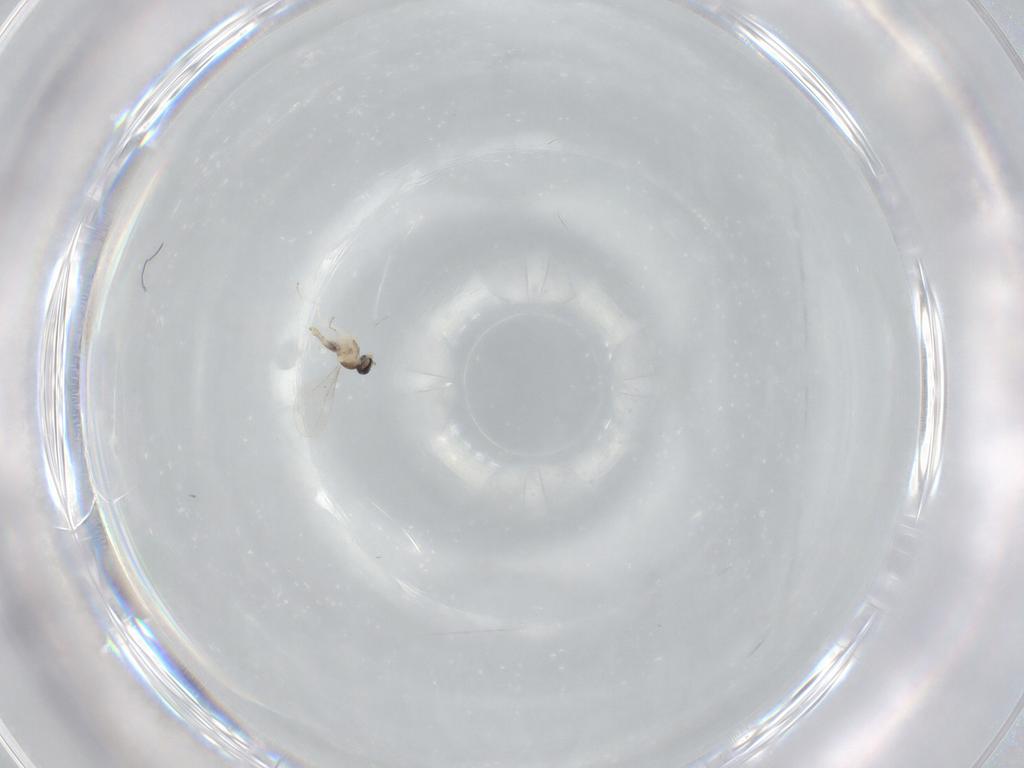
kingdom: Animalia
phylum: Arthropoda
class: Insecta
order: Diptera
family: Cecidomyiidae
